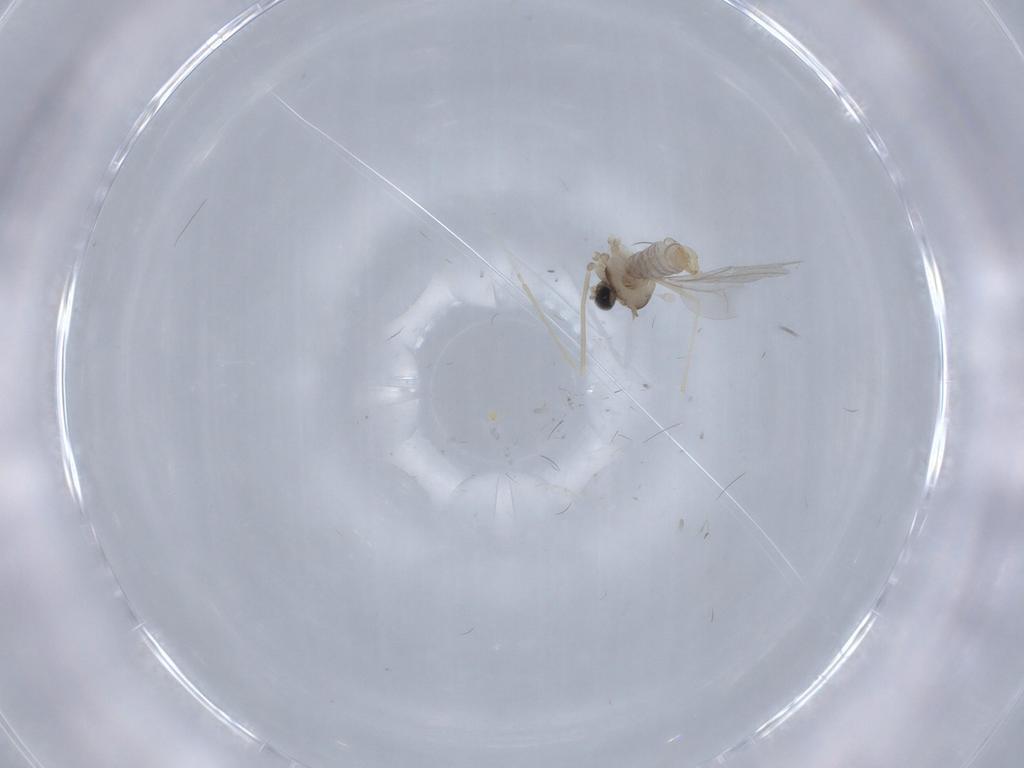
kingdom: Animalia
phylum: Arthropoda
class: Insecta
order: Diptera
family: Cecidomyiidae
